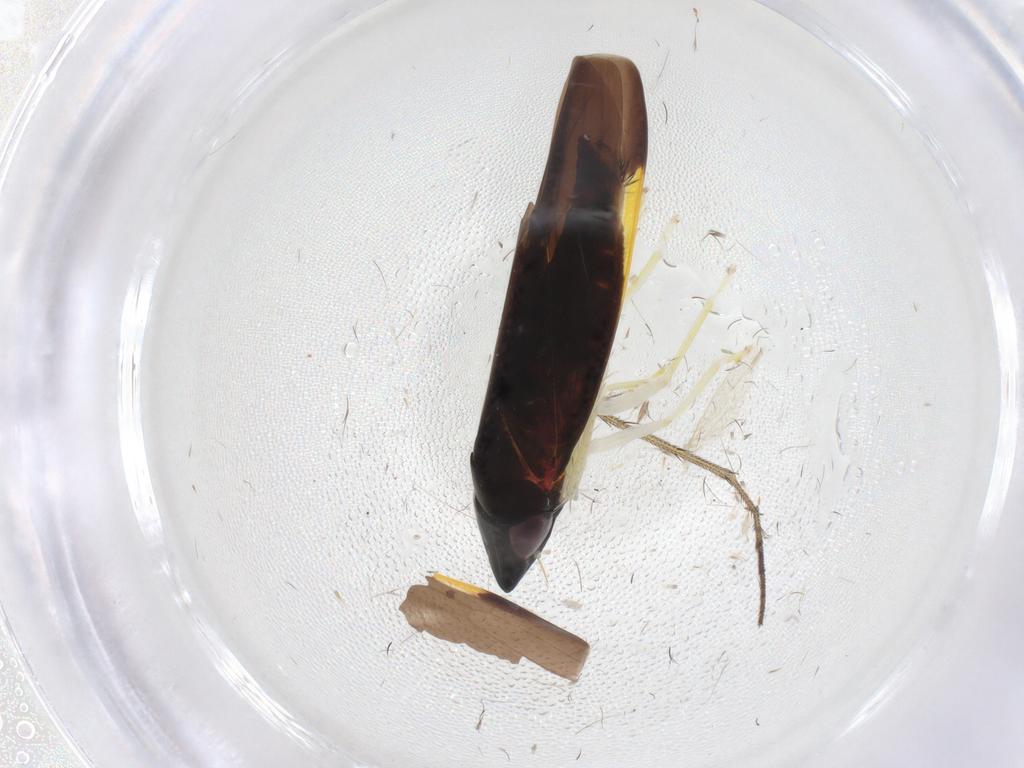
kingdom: Animalia
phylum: Arthropoda
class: Insecta
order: Hemiptera
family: Cicadellidae
